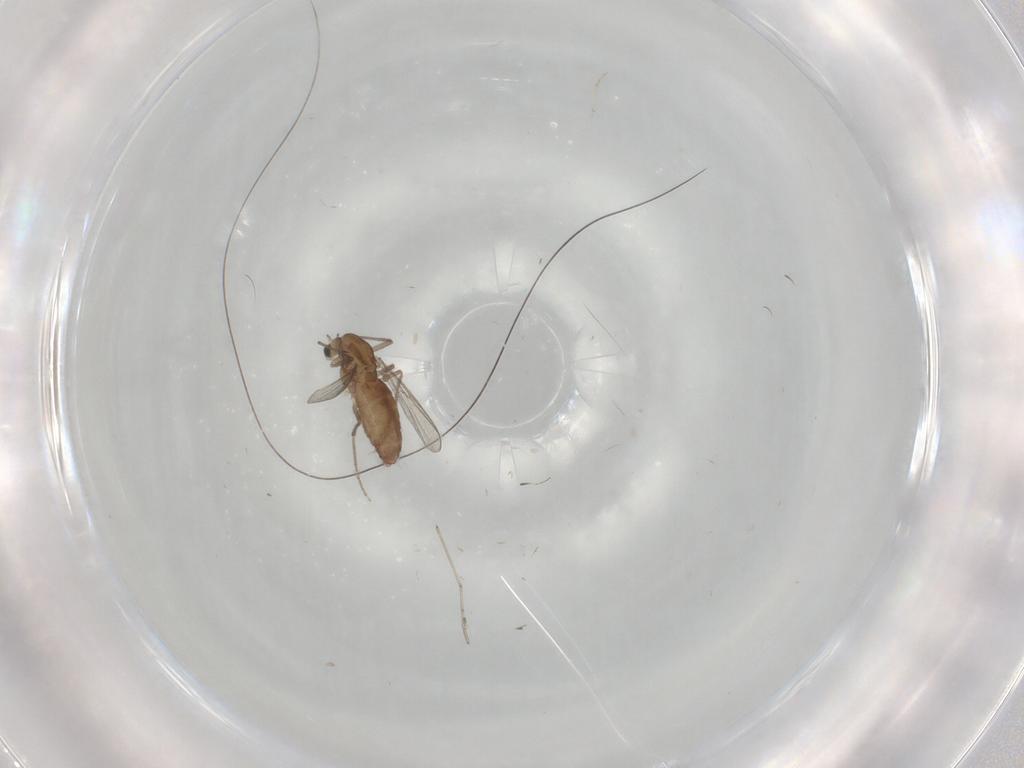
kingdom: Animalia
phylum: Arthropoda
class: Insecta
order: Diptera
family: Chironomidae
